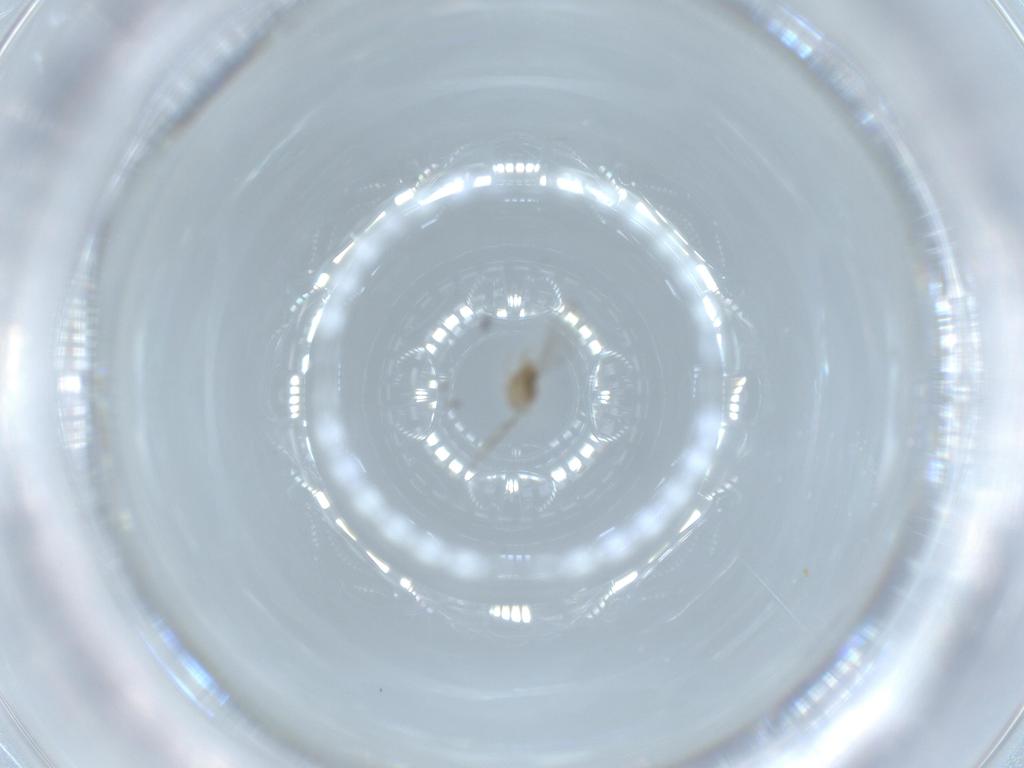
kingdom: Animalia
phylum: Arthropoda
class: Insecta
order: Diptera
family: Cecidomyiidae
